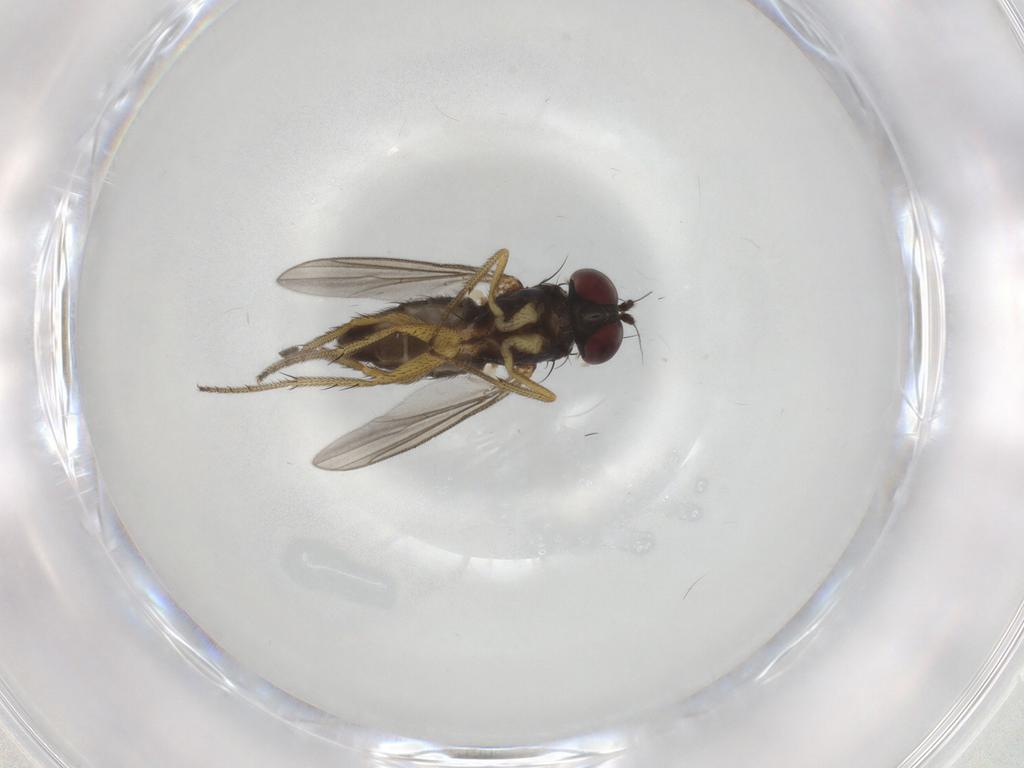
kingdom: Animalia
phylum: Arthropoda
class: Insecta
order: Diptera
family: Dolichopodidae
